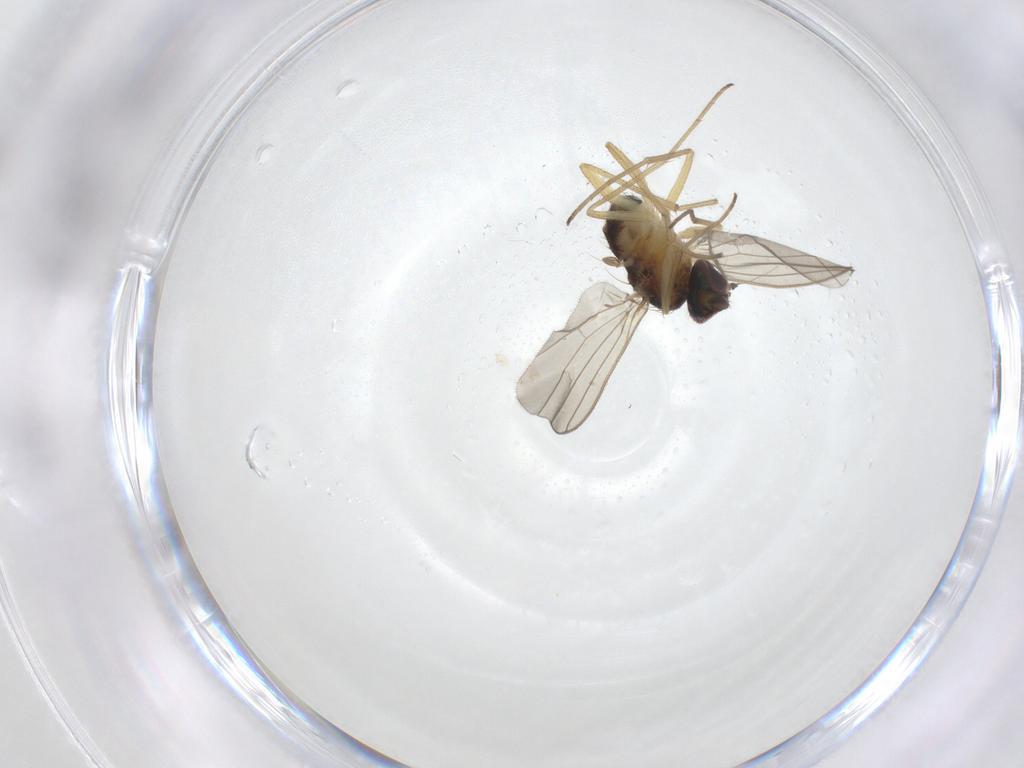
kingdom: Animalia
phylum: Arthropoda
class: Insecta
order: Diptera
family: Dolichopodidae
